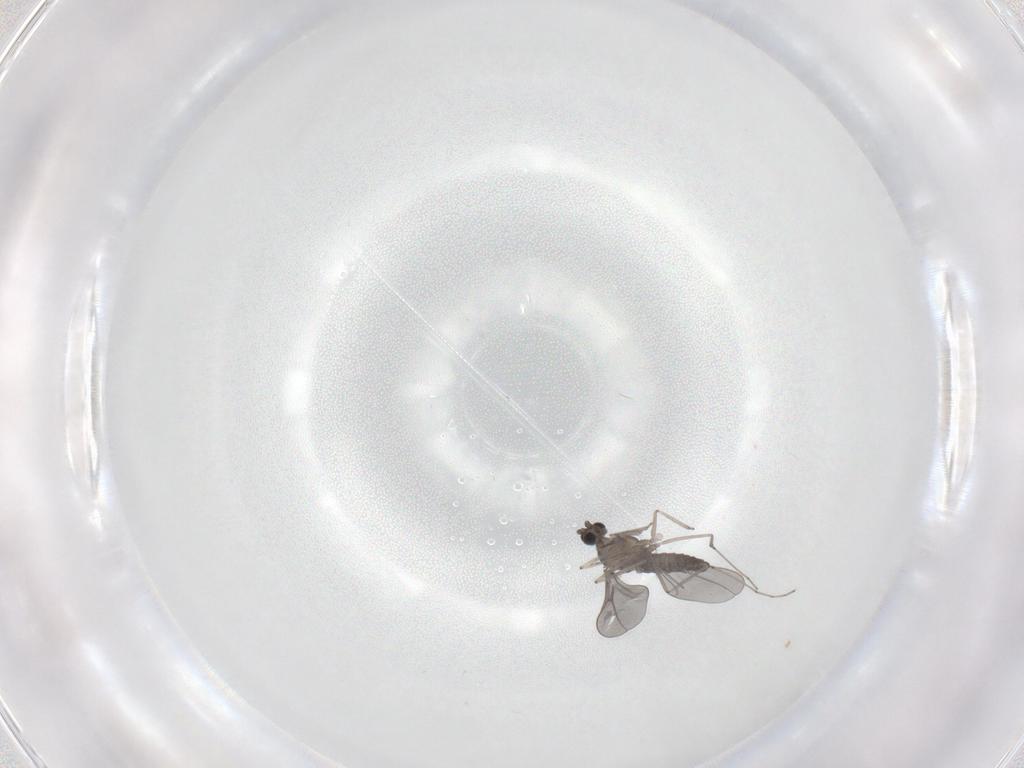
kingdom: Animalia
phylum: Arthropoda
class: Insecta
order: Diptera
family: Cecidomyiidae
